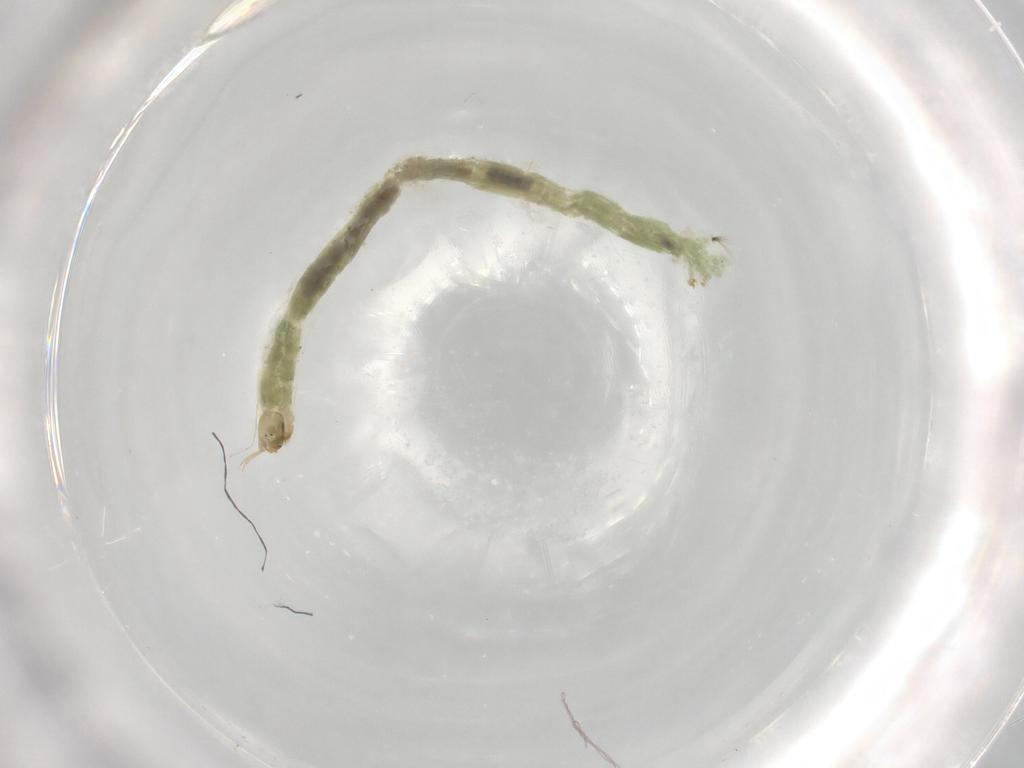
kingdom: Animalia
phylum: Arthropoda
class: Insecta
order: Diptera
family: Chironomidae
